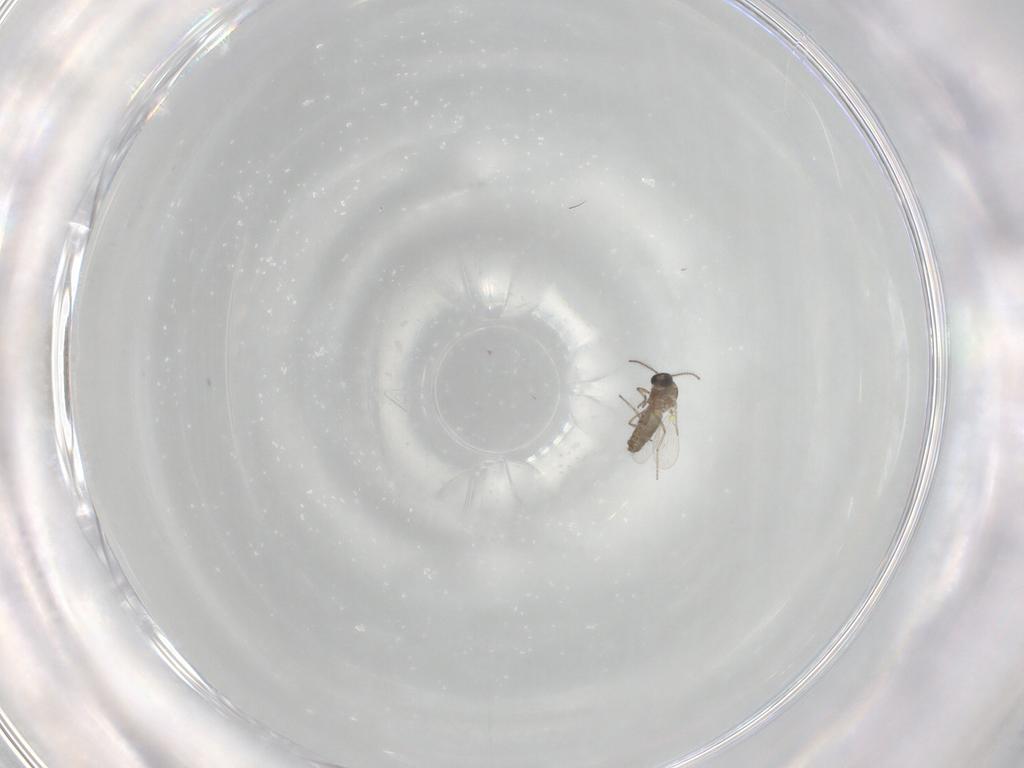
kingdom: Animalia
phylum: Arthropoda
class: Insecta
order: Diptera
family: Ceratopogonidae
